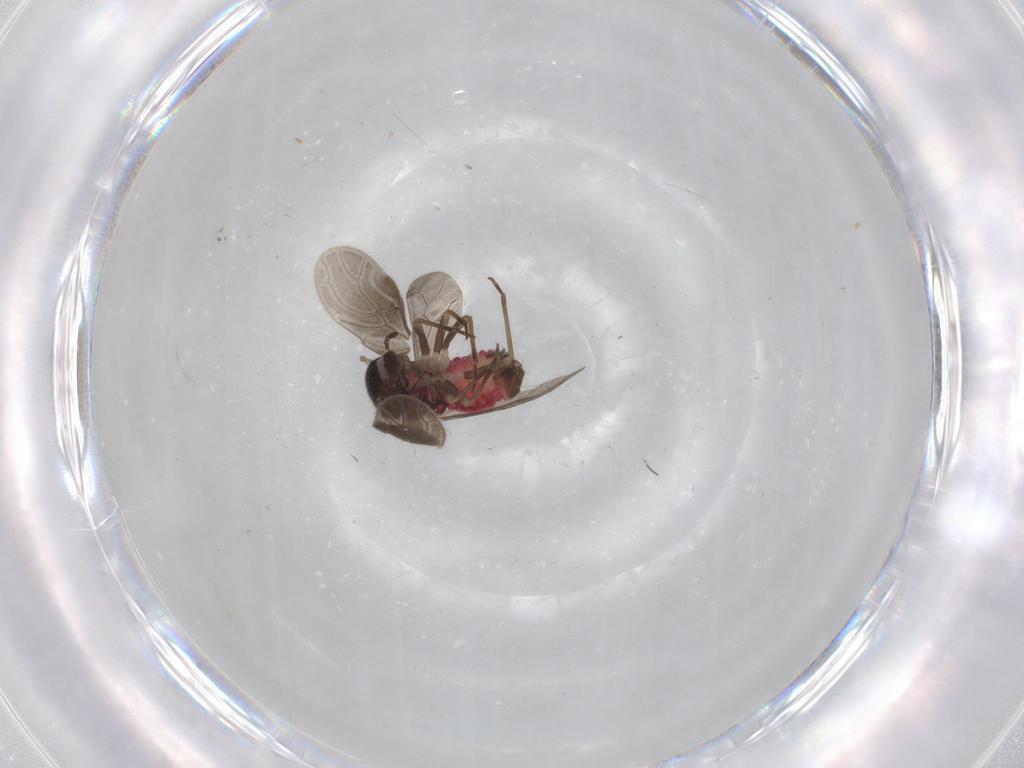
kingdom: Animalia
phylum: Arthropoda
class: Insecta
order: Psocodea
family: Archipsocidae
